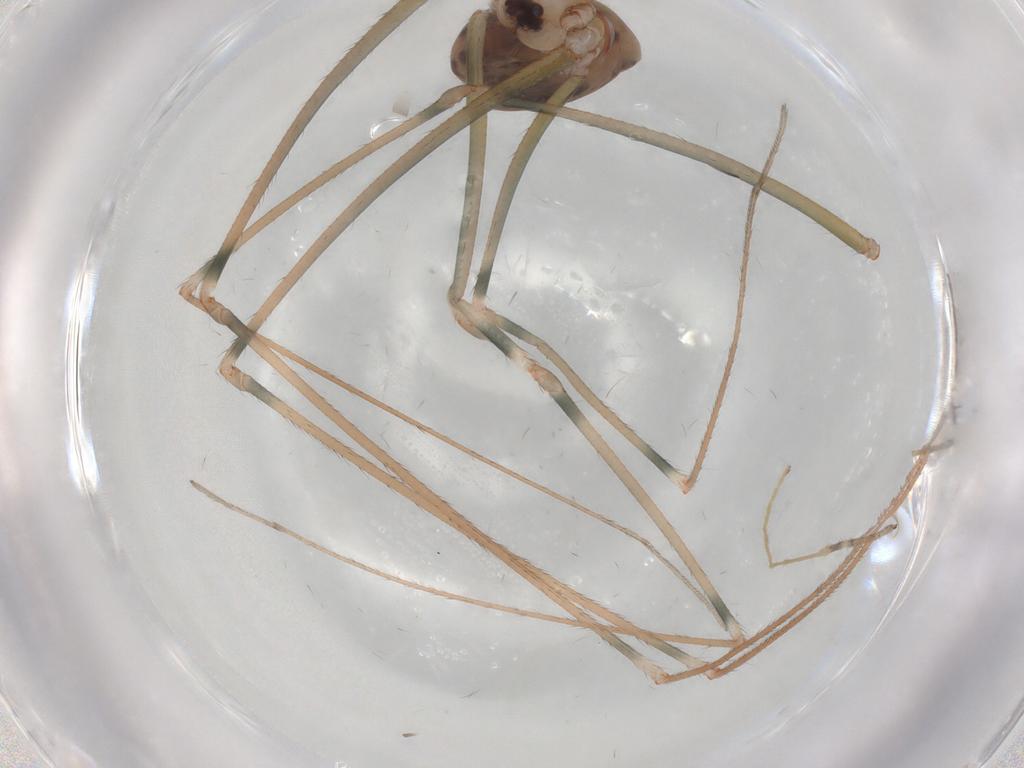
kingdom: Animalia
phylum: Arthropoda
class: Arachnida
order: Araneae
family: Pholcidae
